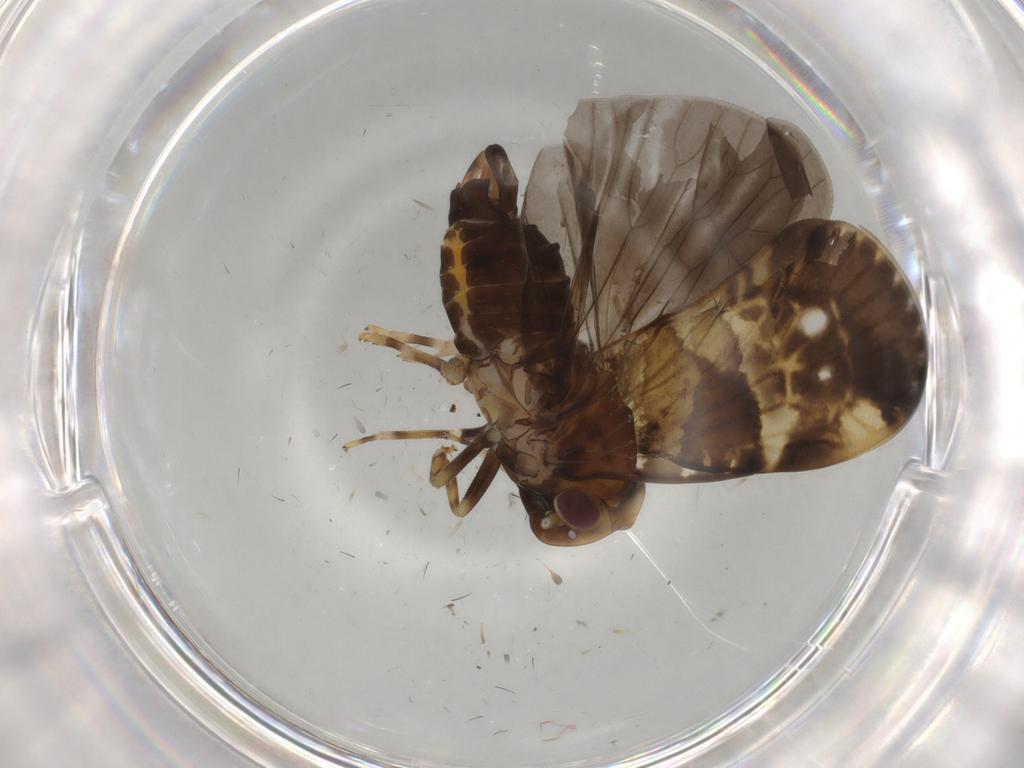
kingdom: Animalia
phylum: Arthropoda
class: Insecta
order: Hemiptera
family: Cixiidae
